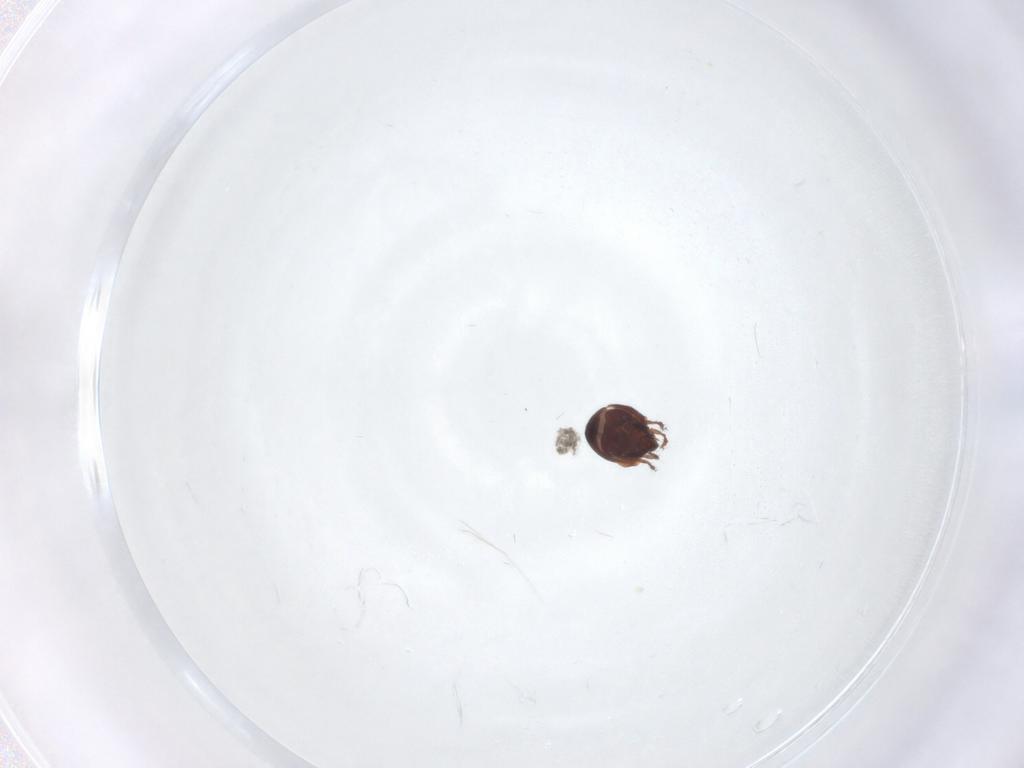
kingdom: Animalia
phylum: Arthropoda
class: Arachnida
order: Sarcoptiformes
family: Ceratozetidae
